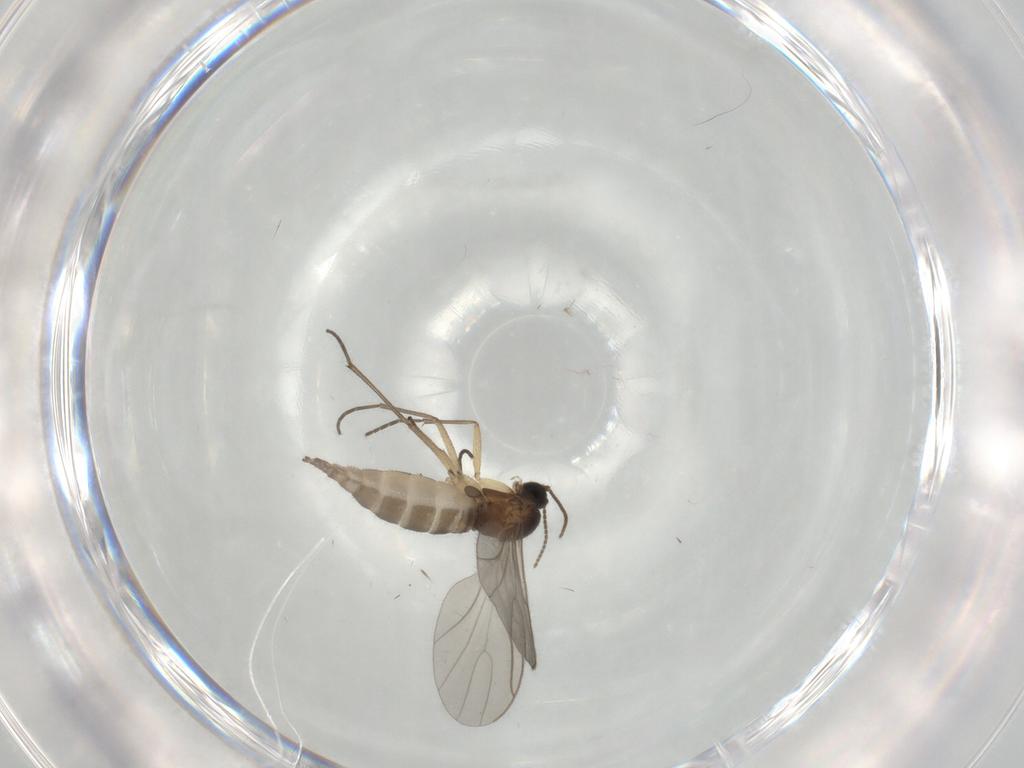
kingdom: Animalia
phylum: Arthropoda
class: Insecta
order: Diptera
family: Sciaridae
